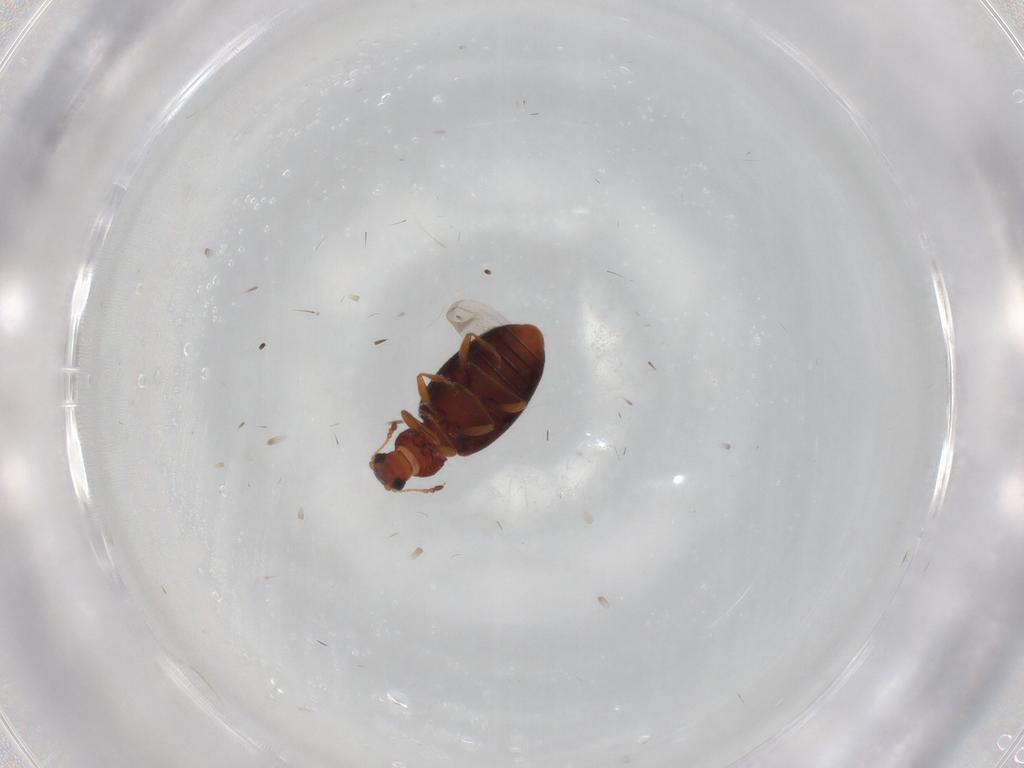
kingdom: Animalia
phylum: Arthropoda
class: Insecta
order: Coleoptera
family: Latridiidae
